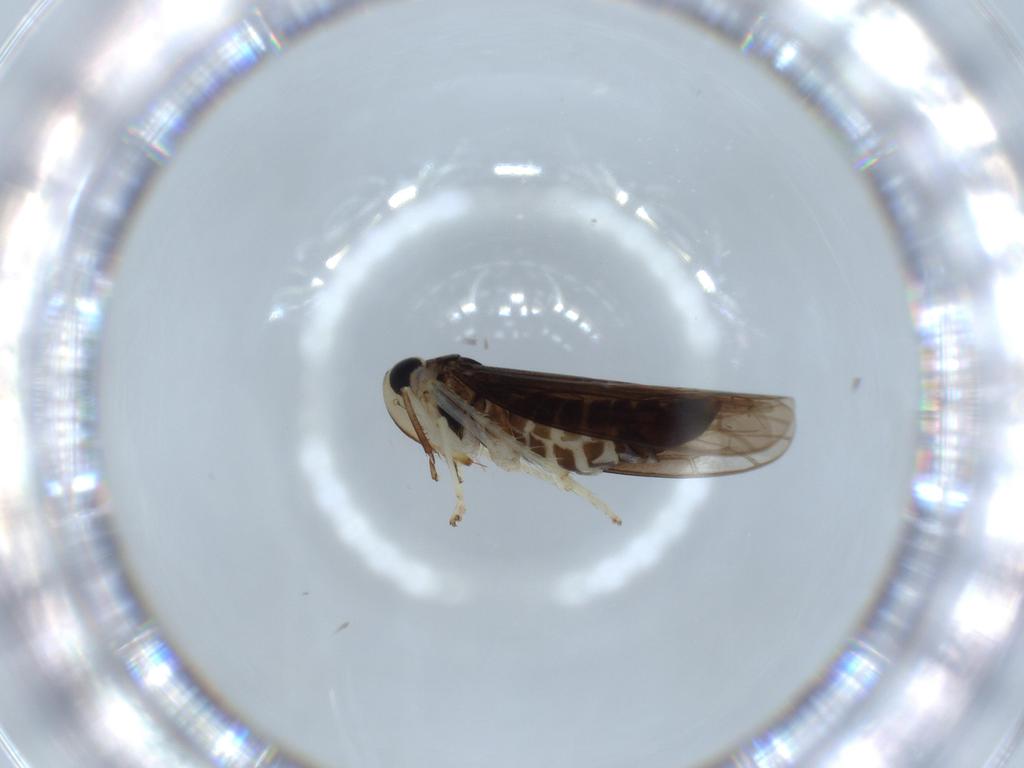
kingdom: Animalia
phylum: Arthropoda
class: Insecta
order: Hemiptera
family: Cicadellidae
